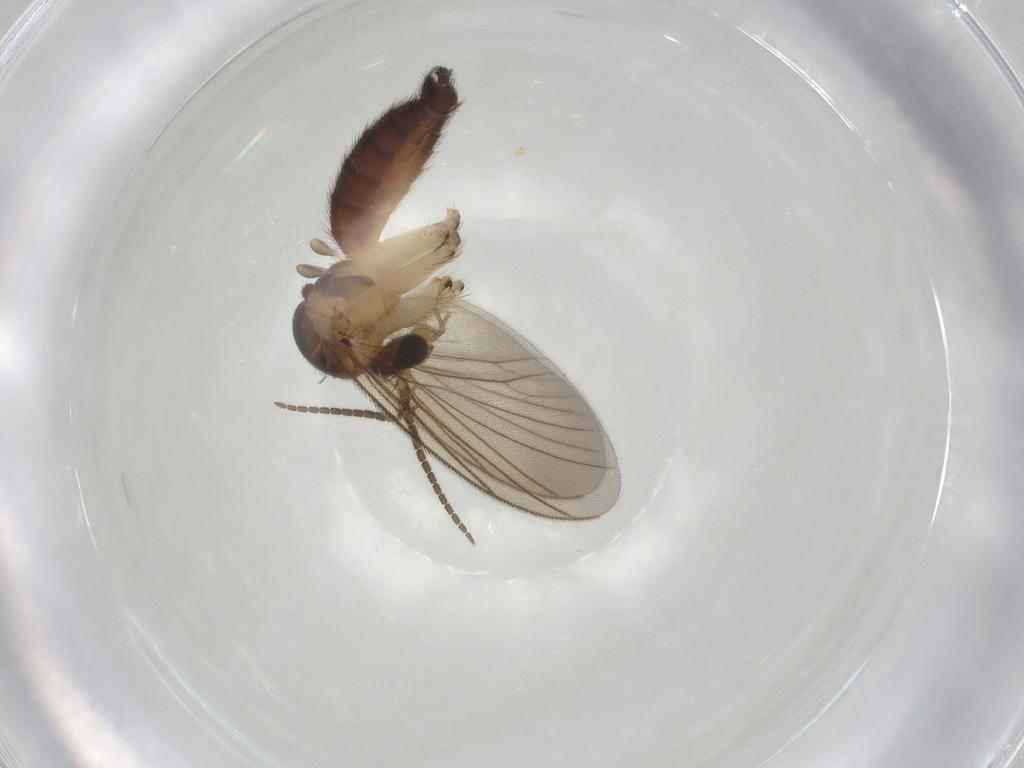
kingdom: Animalia
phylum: Arthropoda
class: Insecta
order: Diptera
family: Mycetophilidae
